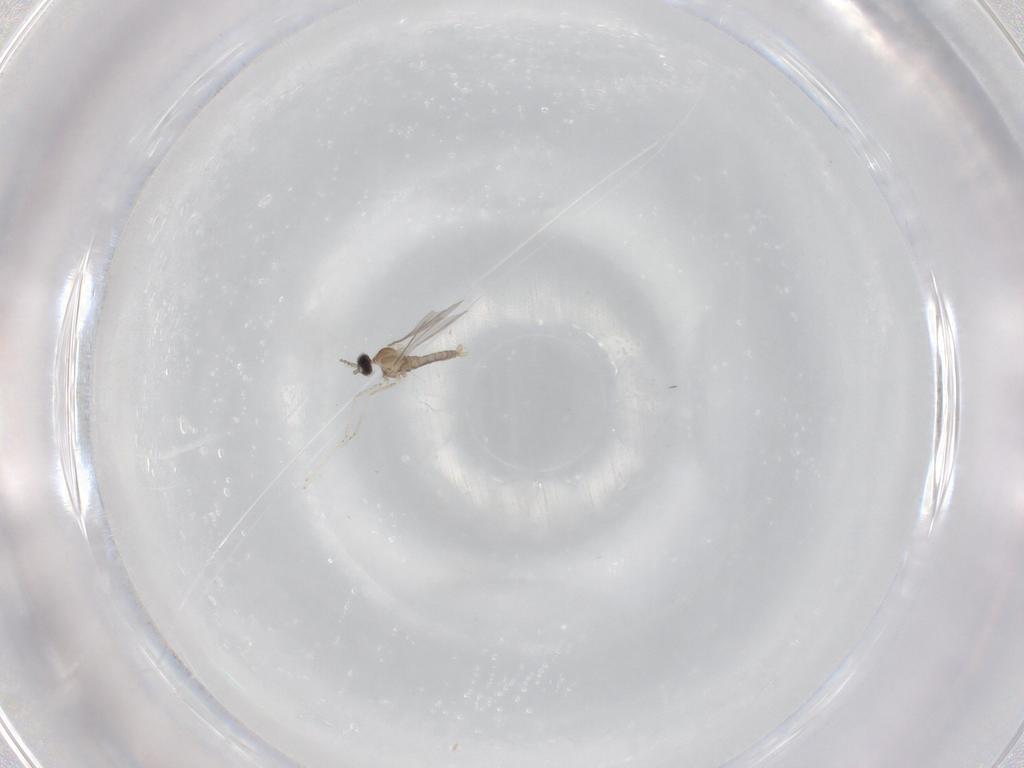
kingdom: Animalia
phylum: Arthropoda
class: Insecta
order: Diptera
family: Cecidomyiidae
